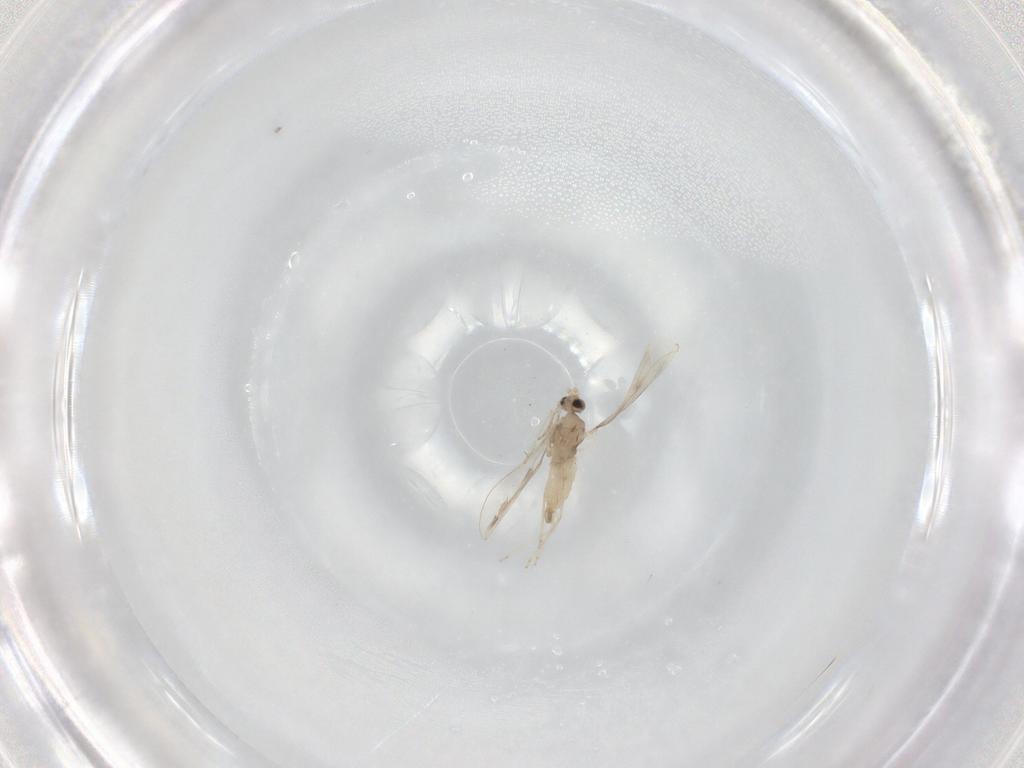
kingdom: Animalia
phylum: Arthropoda
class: Insecta
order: Diptera
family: Cecidomyiidae
